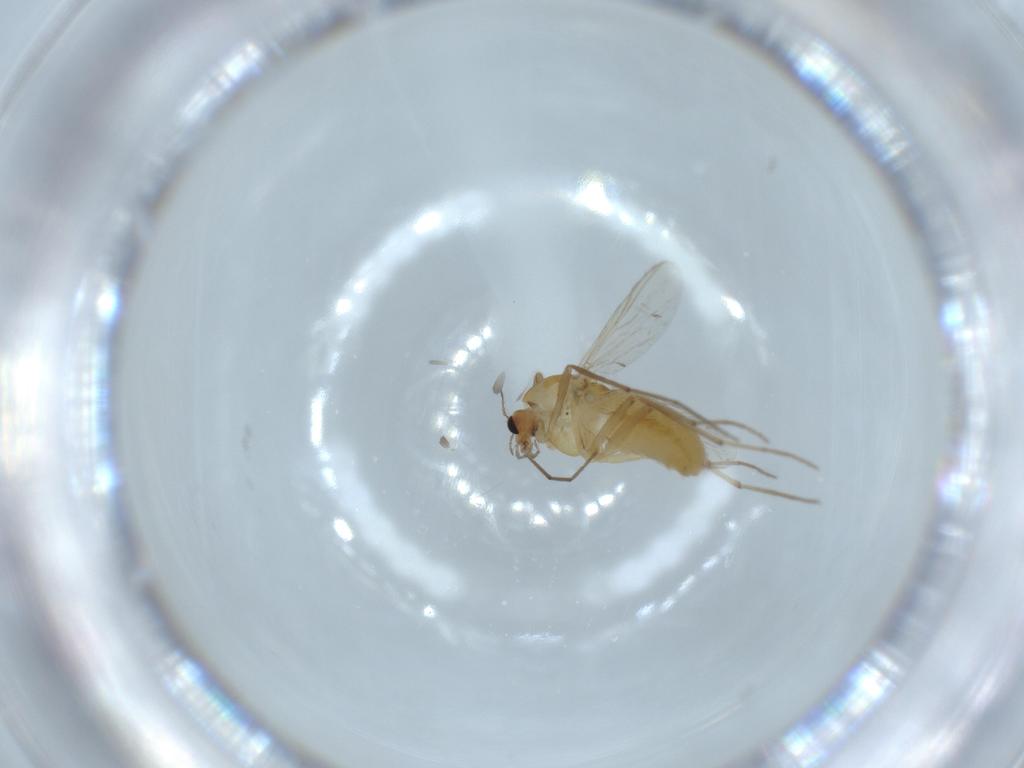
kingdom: Animalia
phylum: Arthropoda
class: Insecta
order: Diptera
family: Chironomidae
